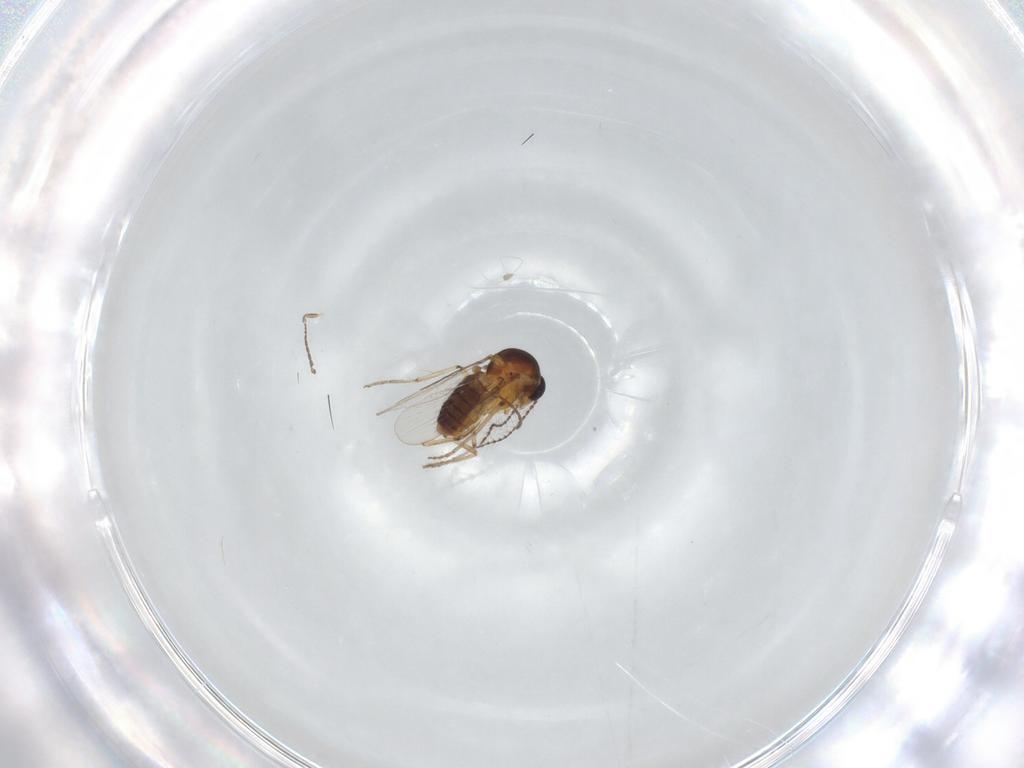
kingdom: Animalia
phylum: Arthropoda
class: Insecta
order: Diptera
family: Ceratopogonidae
